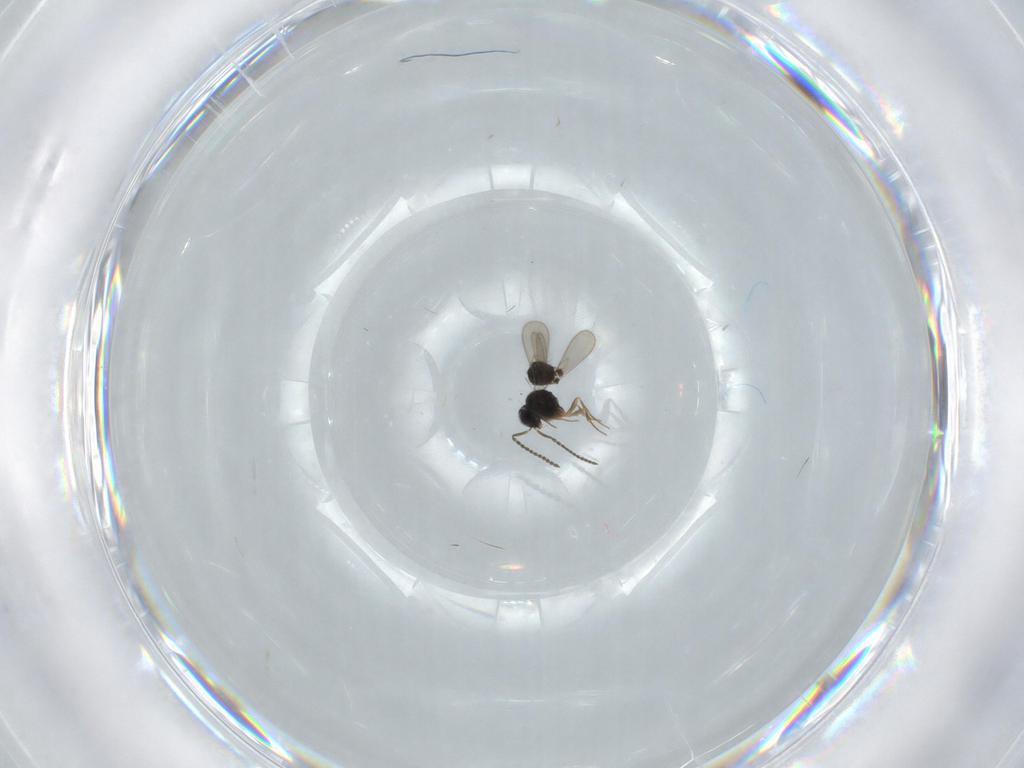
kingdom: Animalia
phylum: Arthropoda
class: Insecta
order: Hymenoptera
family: Scelionidae
